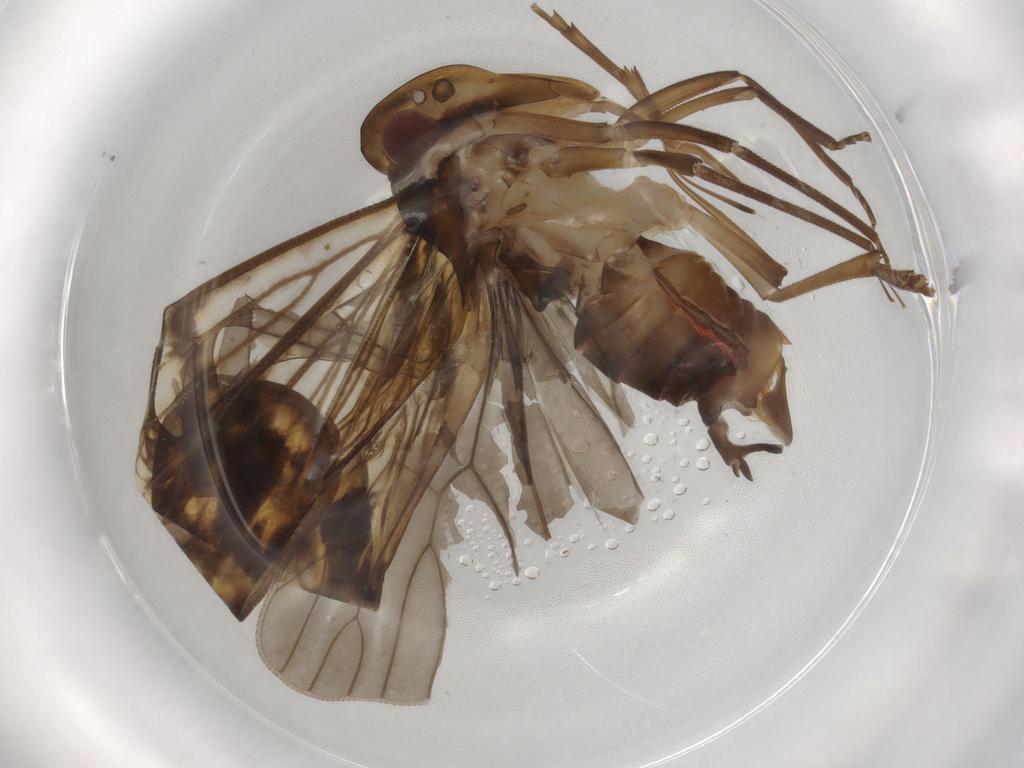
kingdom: Animalia
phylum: Arthropoda
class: Insecta
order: Hemiptera
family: Cixiidae
